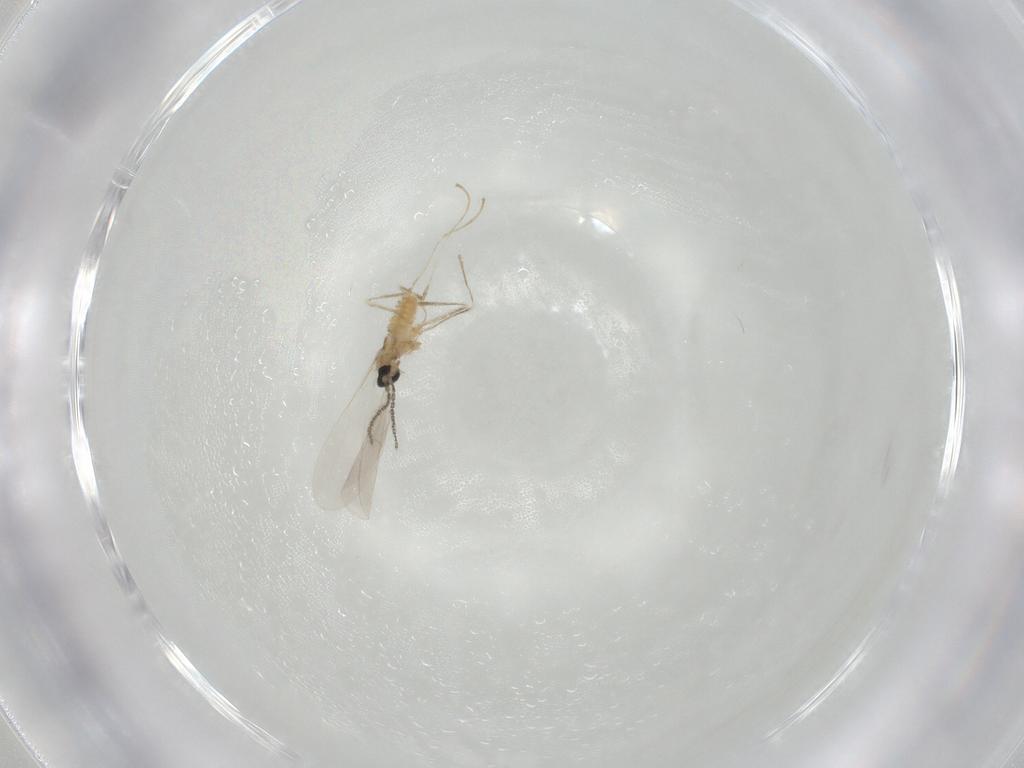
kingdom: Animalia
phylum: Arthropoda
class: Insecta
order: Diptera
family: Cecidomyiidae
